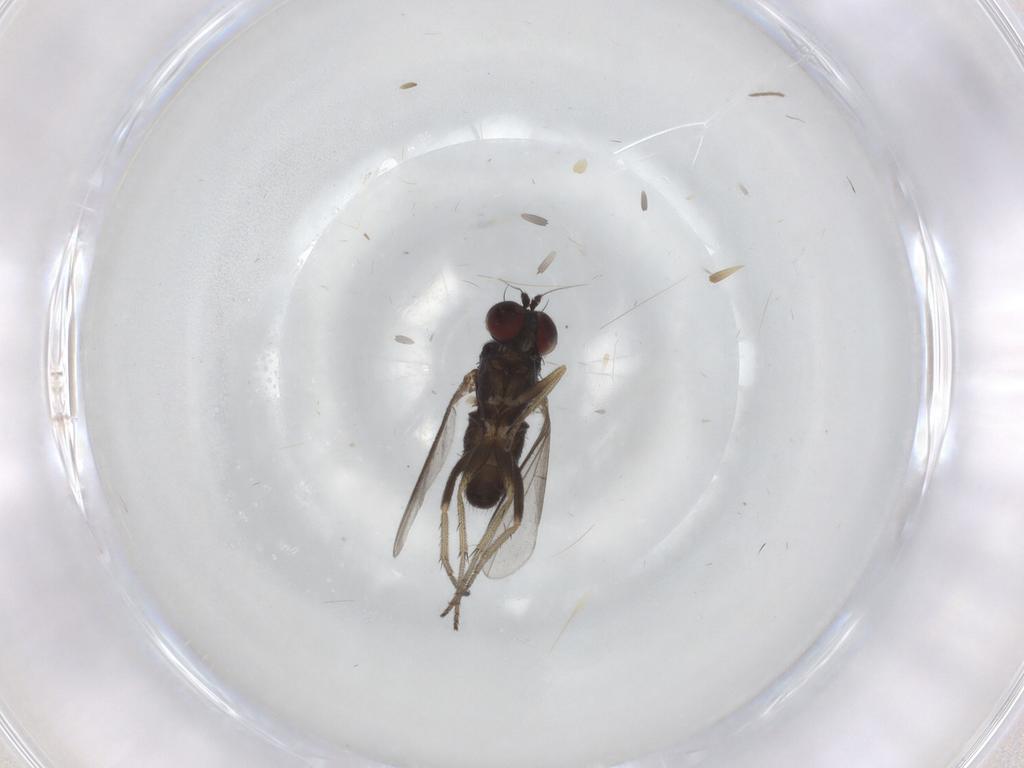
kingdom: Animalia
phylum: Arthropoda
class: Insecta
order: Diptera
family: Dolichopodidae
